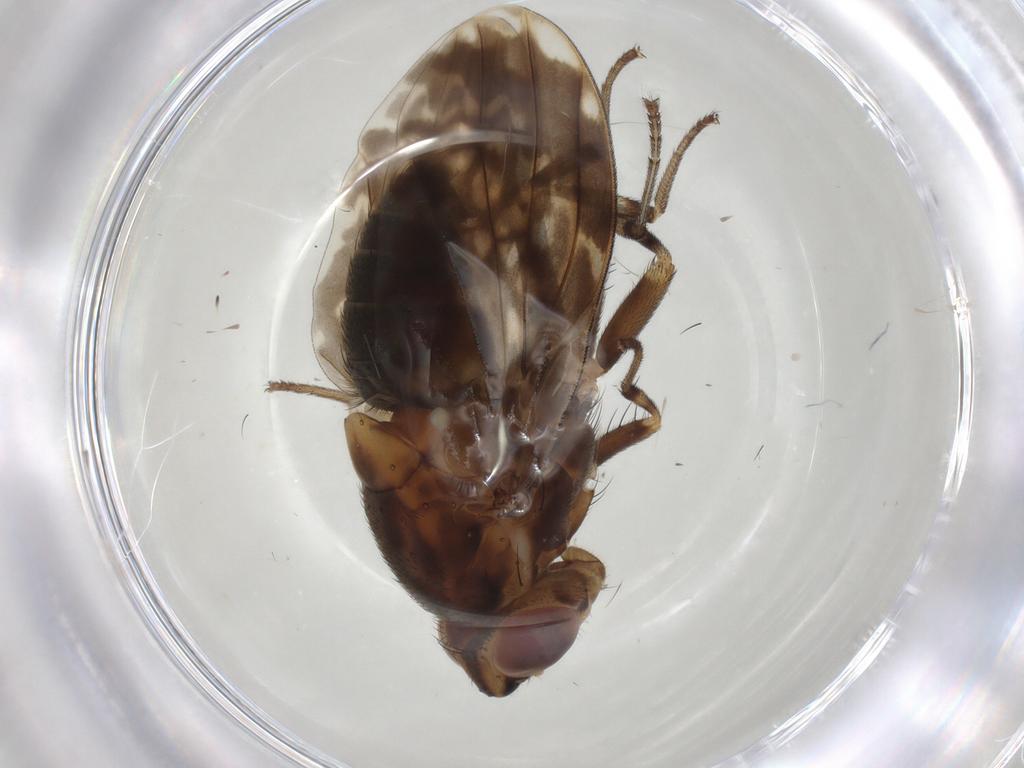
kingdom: Animalia
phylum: Arthropoda
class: Insecta
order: Diptera
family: Lauxaniidae
